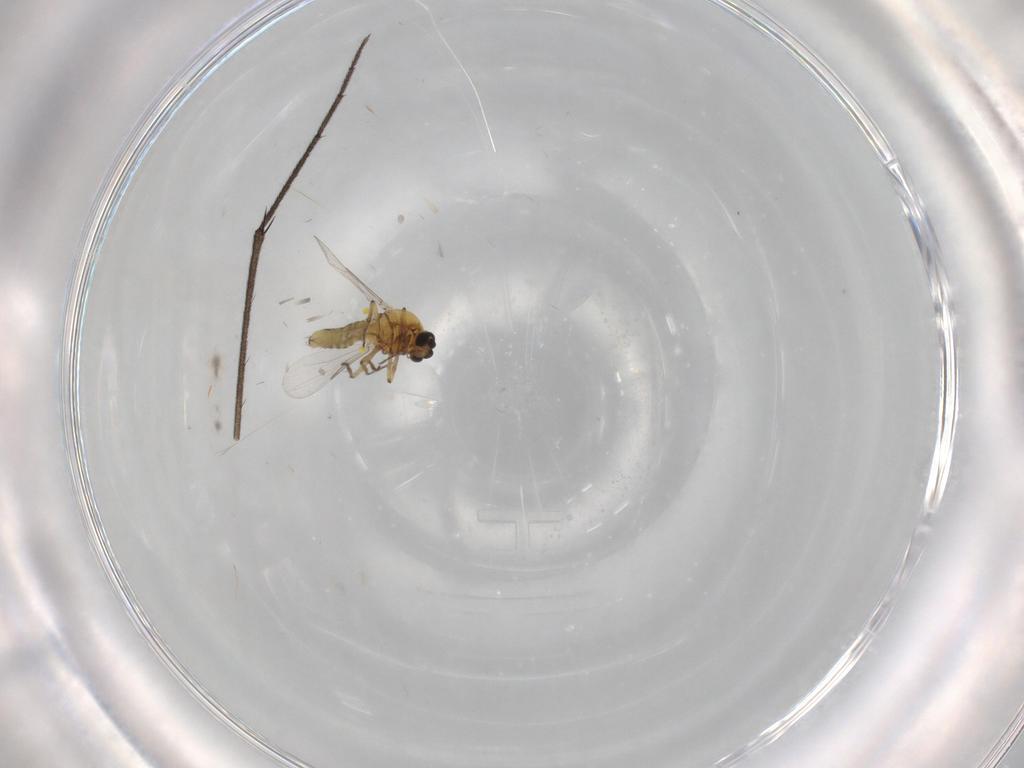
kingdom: Animalia
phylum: Arthropoda
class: Insecta
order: Diptera
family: Ceratopogonidae
